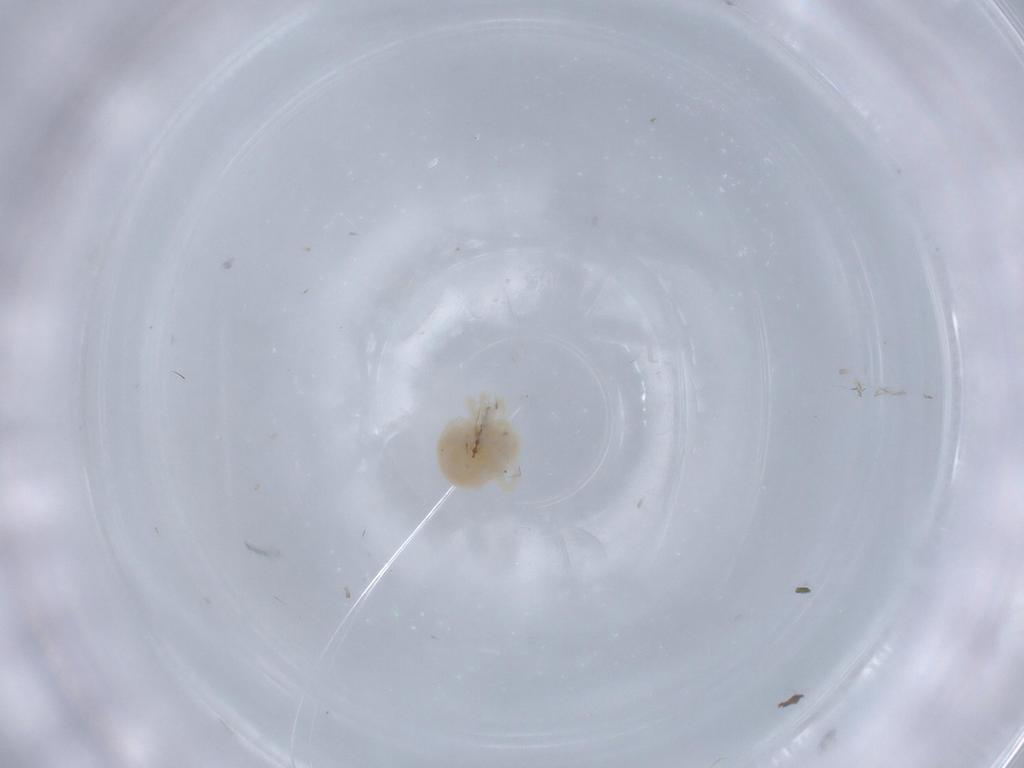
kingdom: Animalia
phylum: Arthropoda
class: Arachnida
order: Trombidiformes
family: Anystidae
